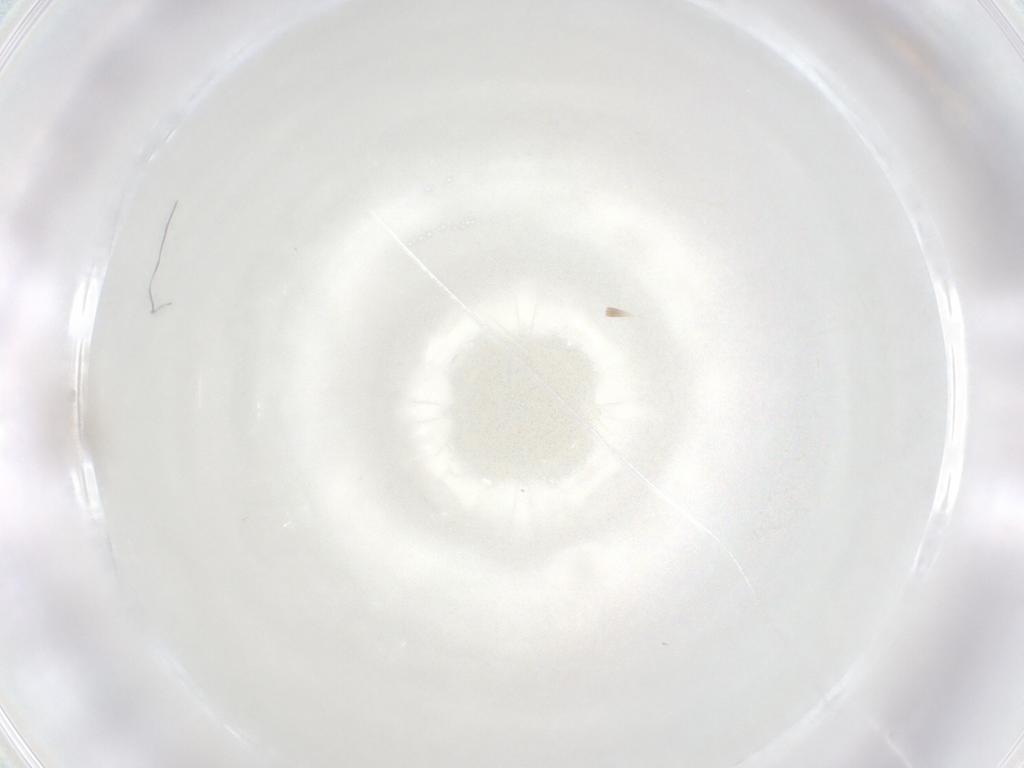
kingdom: Animalia
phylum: Arthropoda
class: Insecta
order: Diptera
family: Cecidomyiidae
